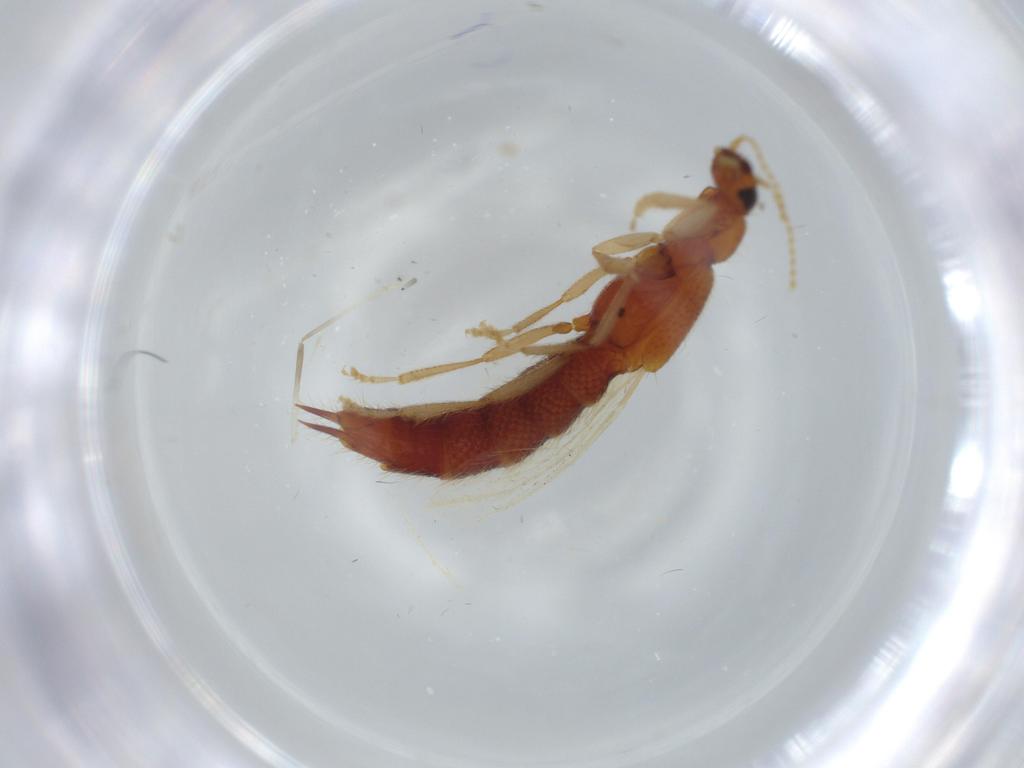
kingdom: Animalia
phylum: Arthropoda
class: Insecta
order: Coleoptera
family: Staphylinidae
